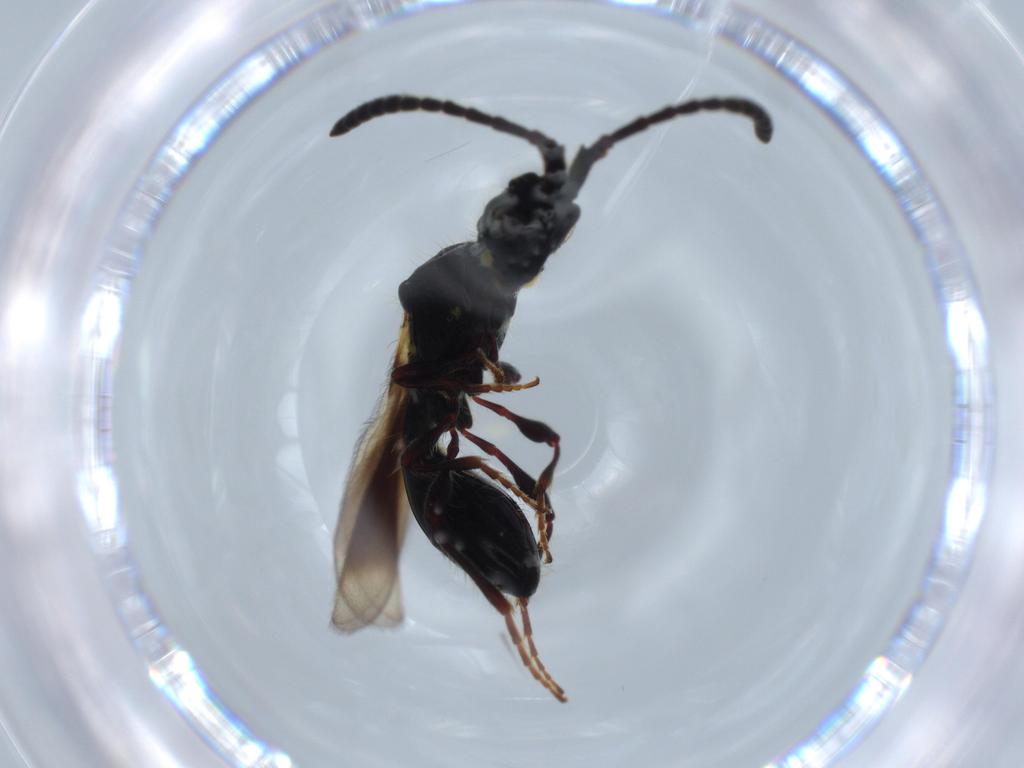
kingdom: Animalia
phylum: Arthropoda
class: Insecta
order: Hymenoptera
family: Diapriidae
